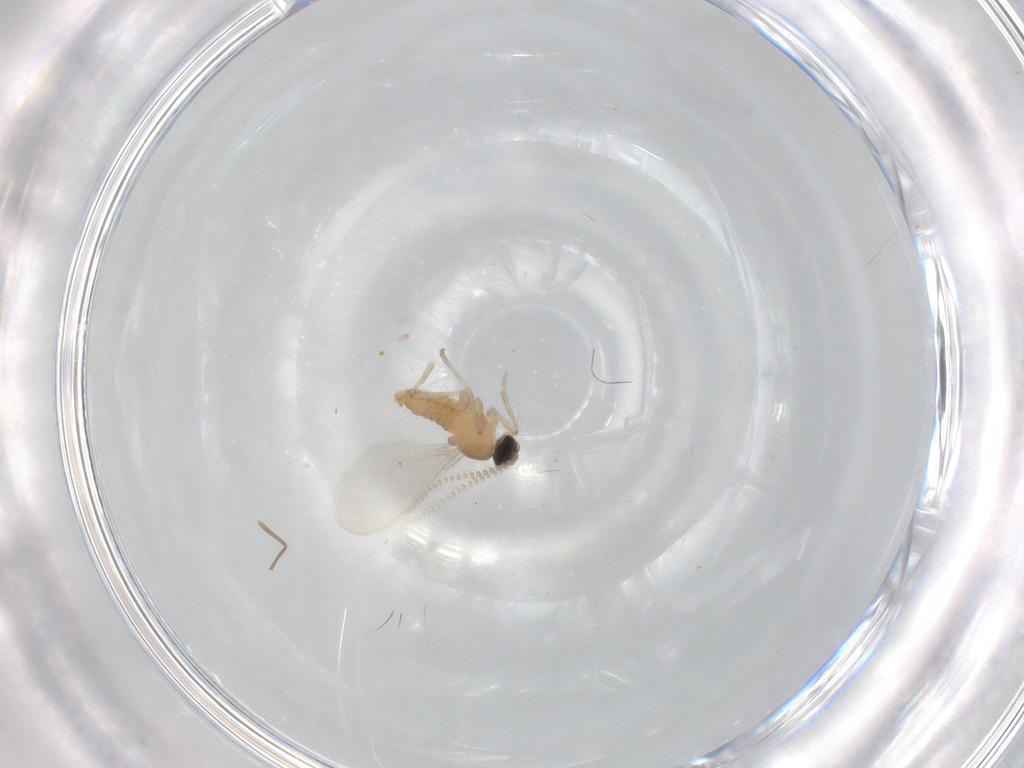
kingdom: Animalia
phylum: Arthropoda
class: Insecta
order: Diptera
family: Cecidomyiidae
